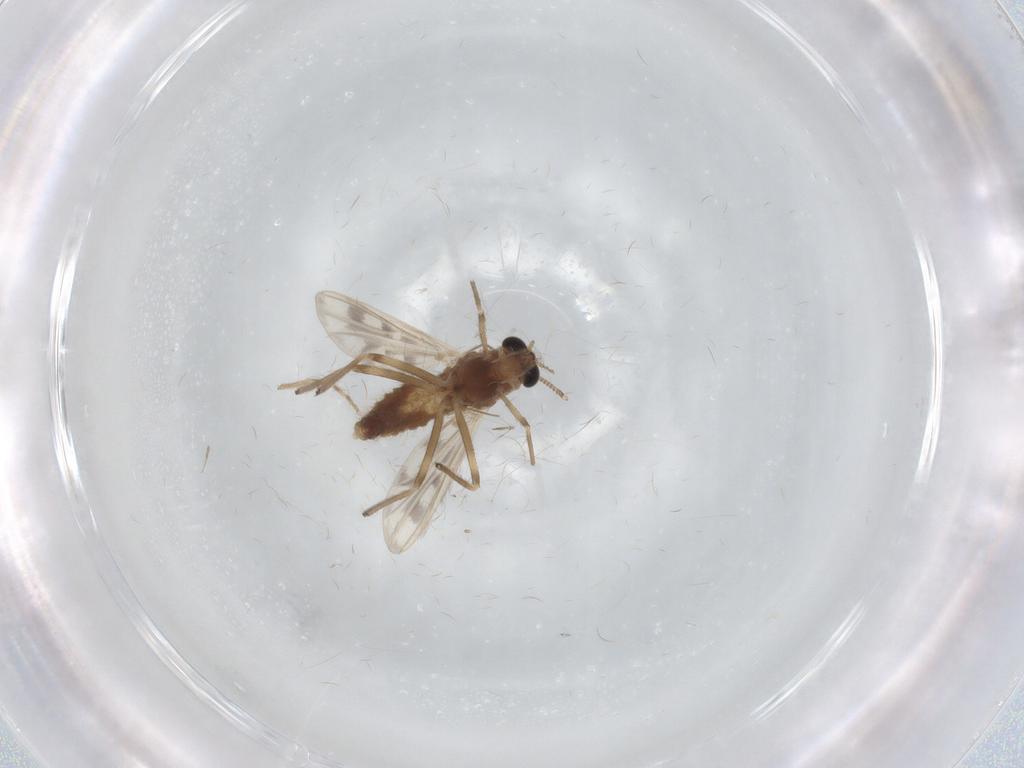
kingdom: Animalia
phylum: Arthropoda
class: Insecta
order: Diptera
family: Chironomidae
